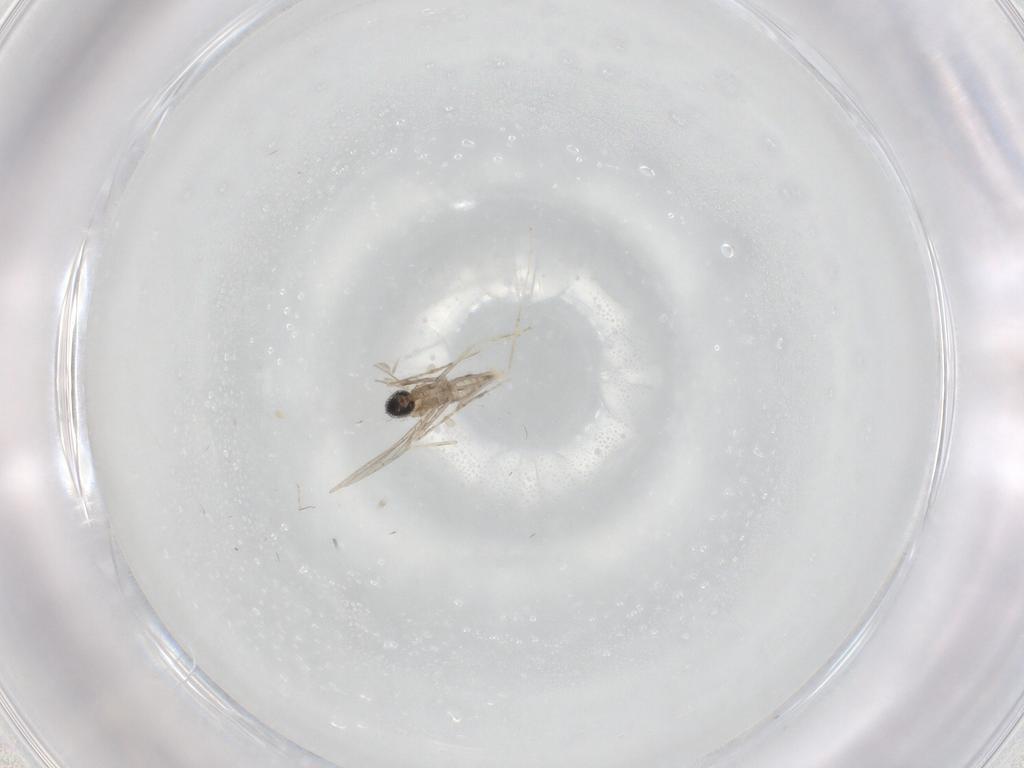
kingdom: Animalia
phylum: Arthropoda
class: Insecta
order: Diptera
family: Cecidomyiidae
